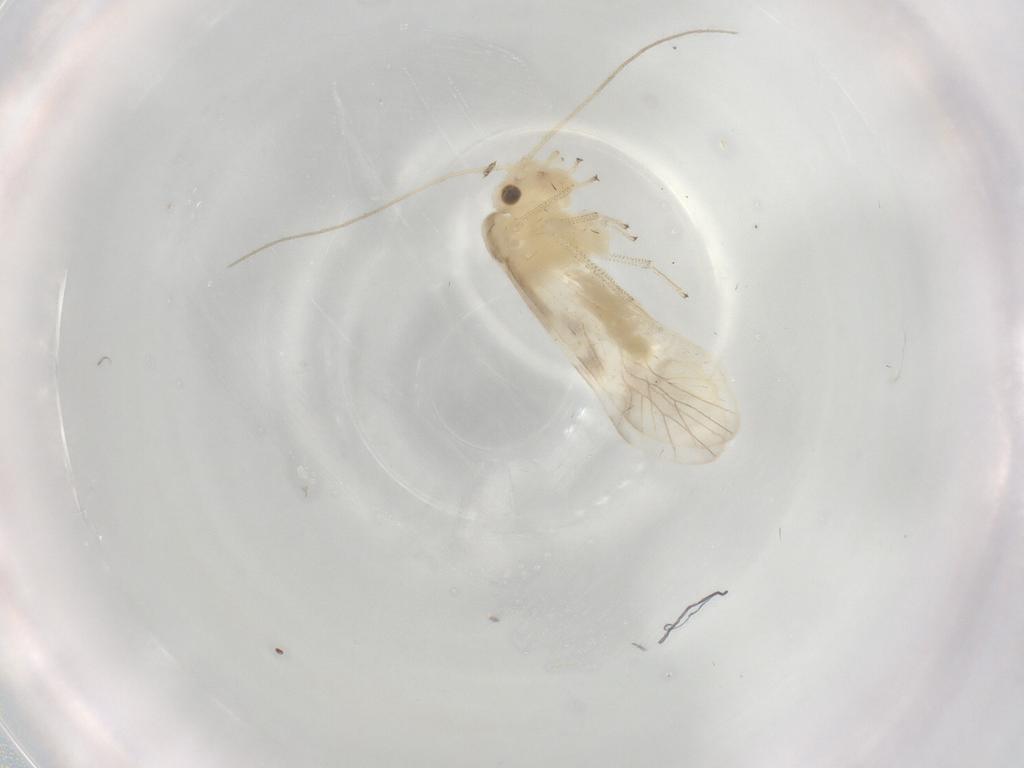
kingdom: Animalia
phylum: Arthropoda
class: Insecta
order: Psocodea
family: Caeciliusidae
